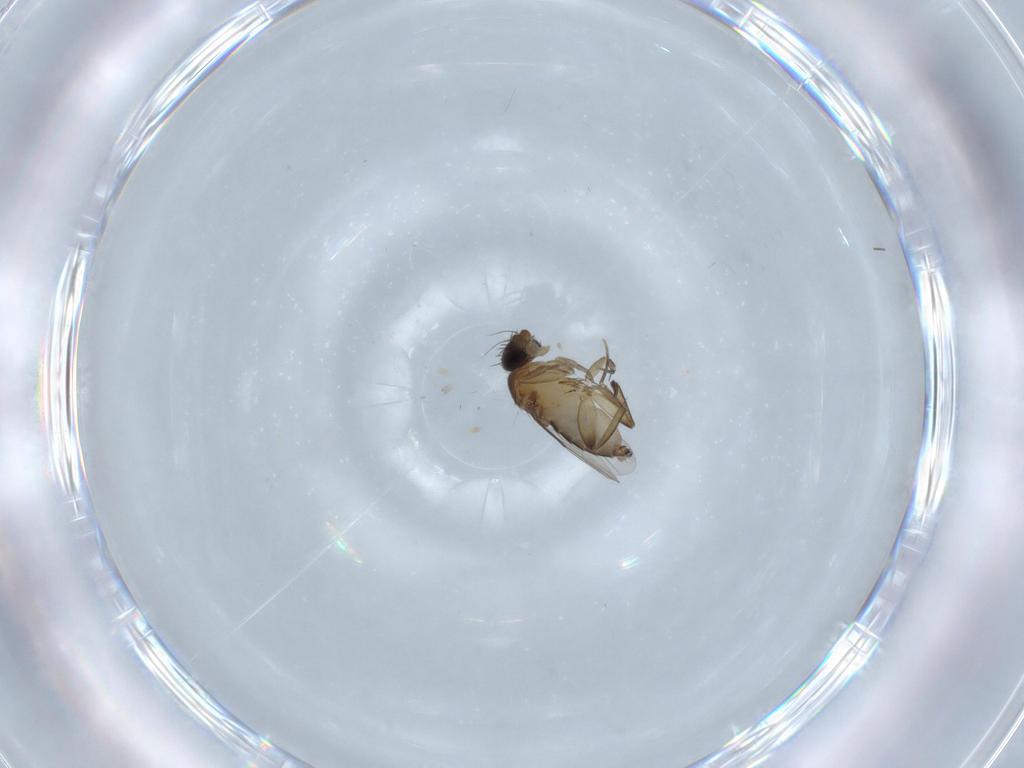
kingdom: Animalia
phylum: Arthropoda
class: Insecta
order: Diptera
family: Phoridae
